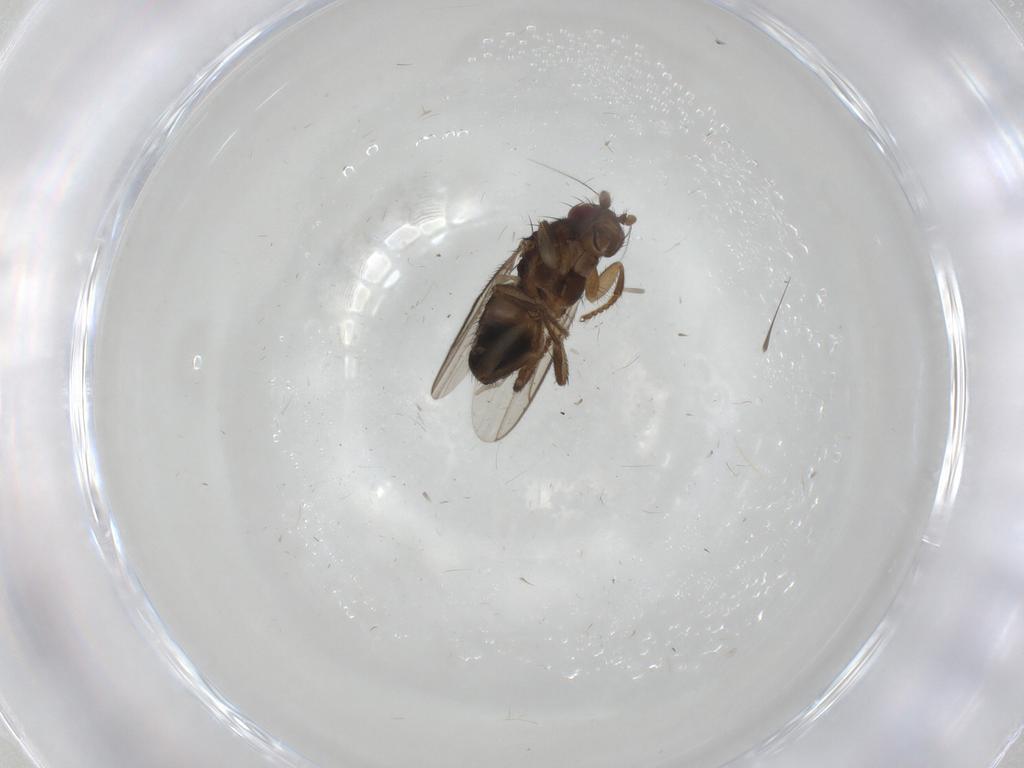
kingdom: Animalia
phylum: Arthropoda
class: Insecta
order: Diptera
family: Sphaeroceridae
